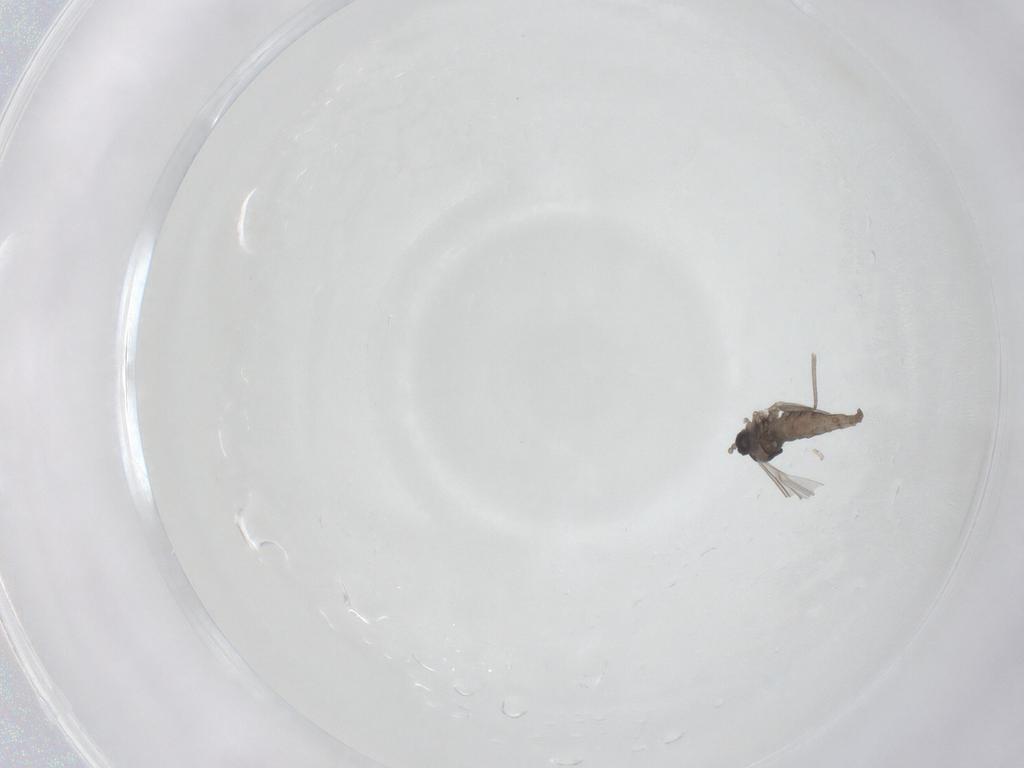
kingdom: Animalia
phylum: Arthropoda
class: Insecta
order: Diptera
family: Cecidomyiidae
